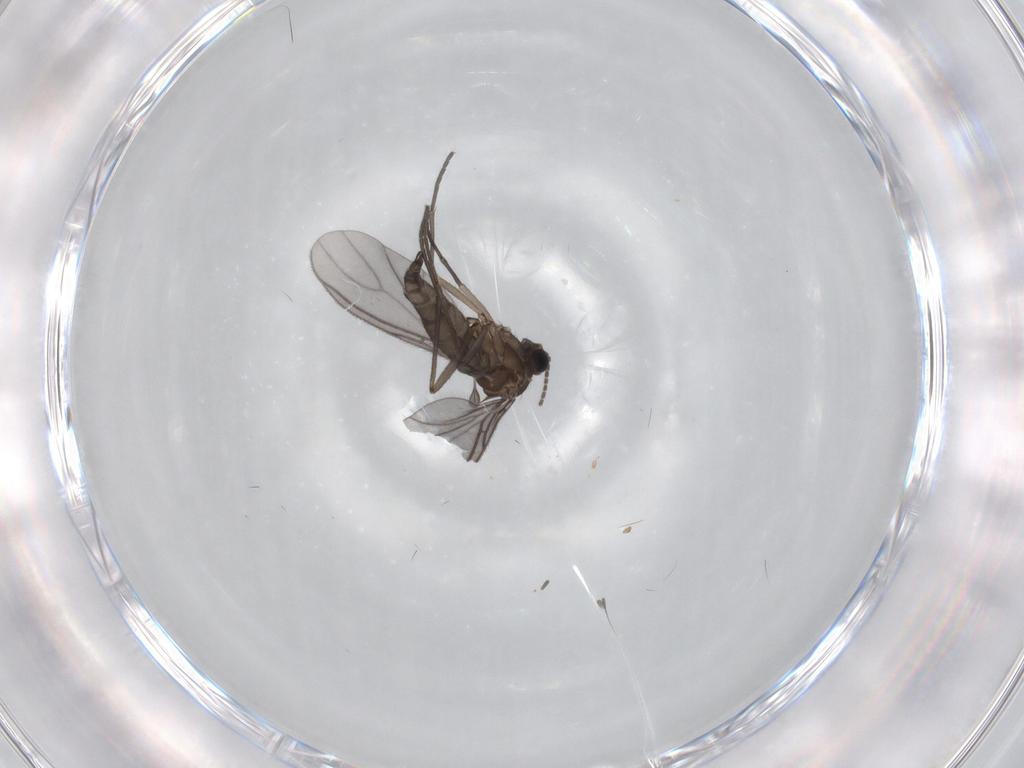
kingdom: Animalia
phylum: Arthropoda
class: Insecta
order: Diptera
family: Sciaridae
